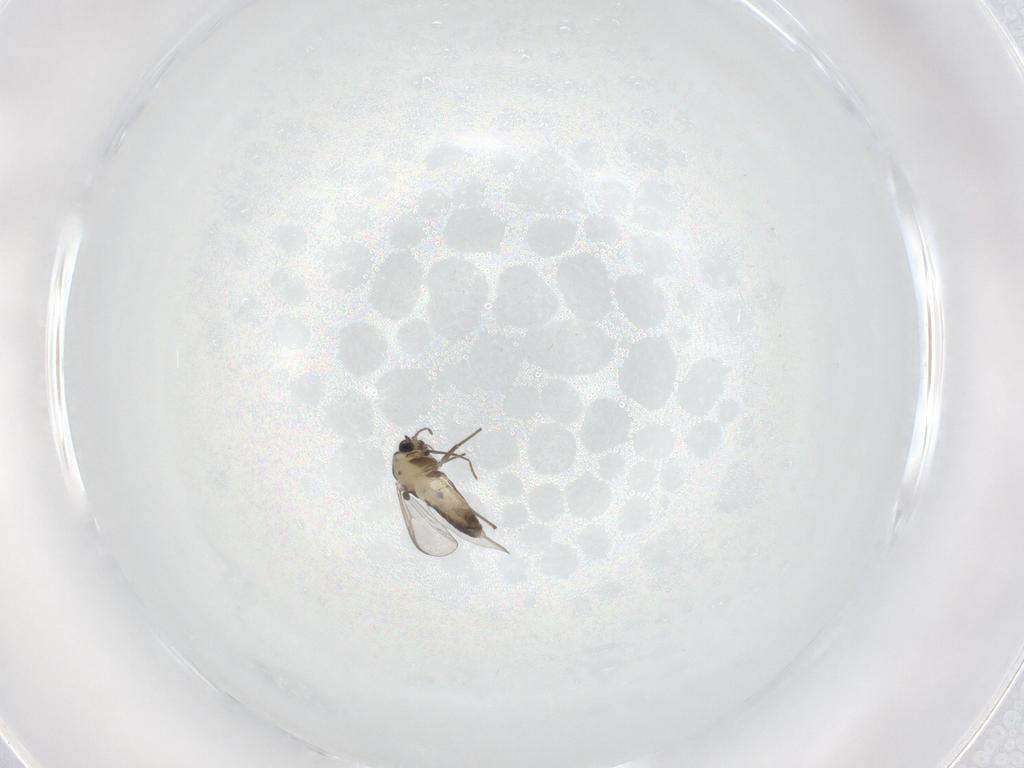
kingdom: Animalia
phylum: Arthropoda
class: Insecta
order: Diptera
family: Chironomidae
